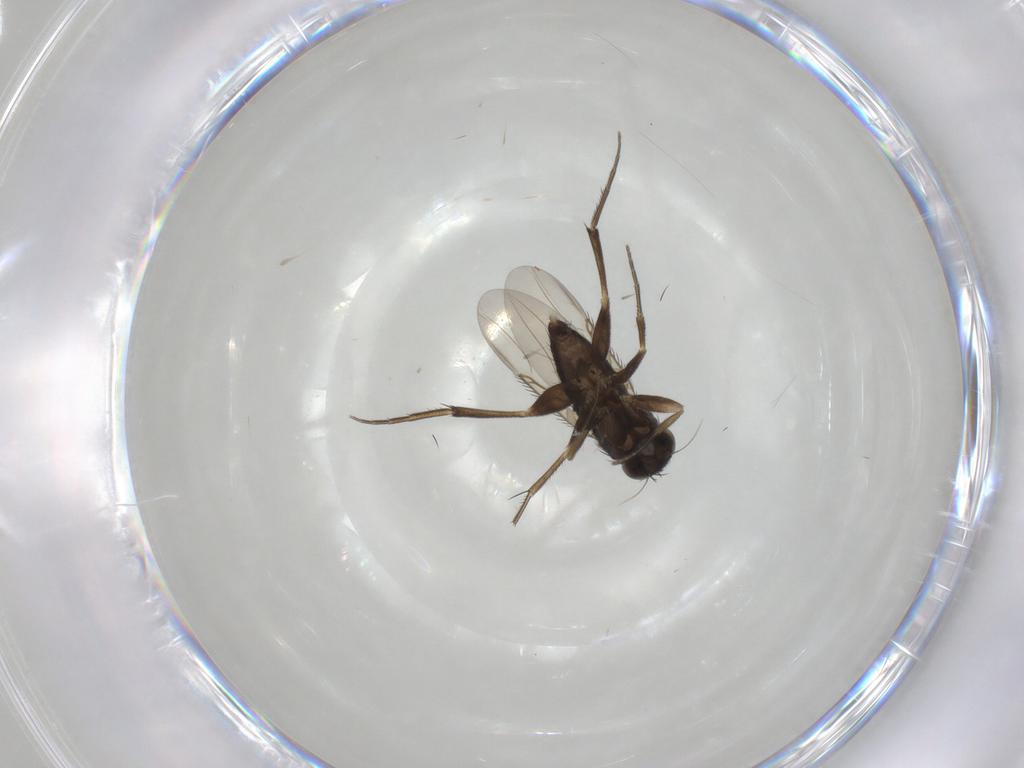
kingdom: Animalia
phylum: Arthropoda
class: Insecta
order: Diptera
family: Phoridae
